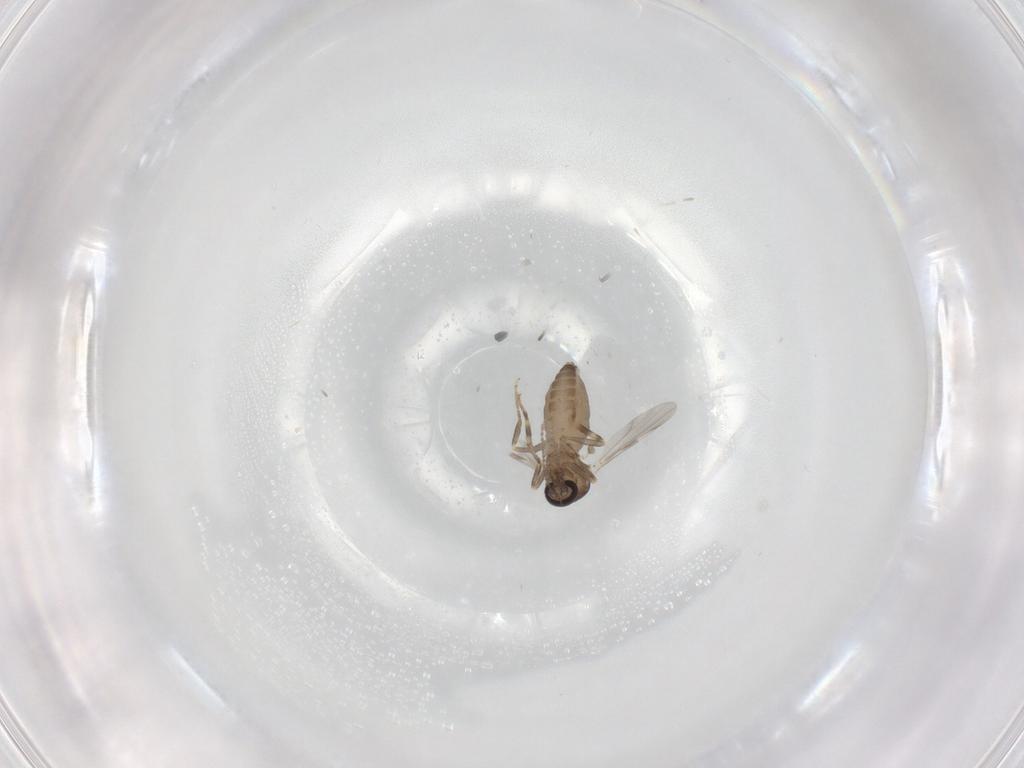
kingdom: Animalia
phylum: Arthropoda
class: Insecta
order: Diptera
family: Ceratopogonidae
